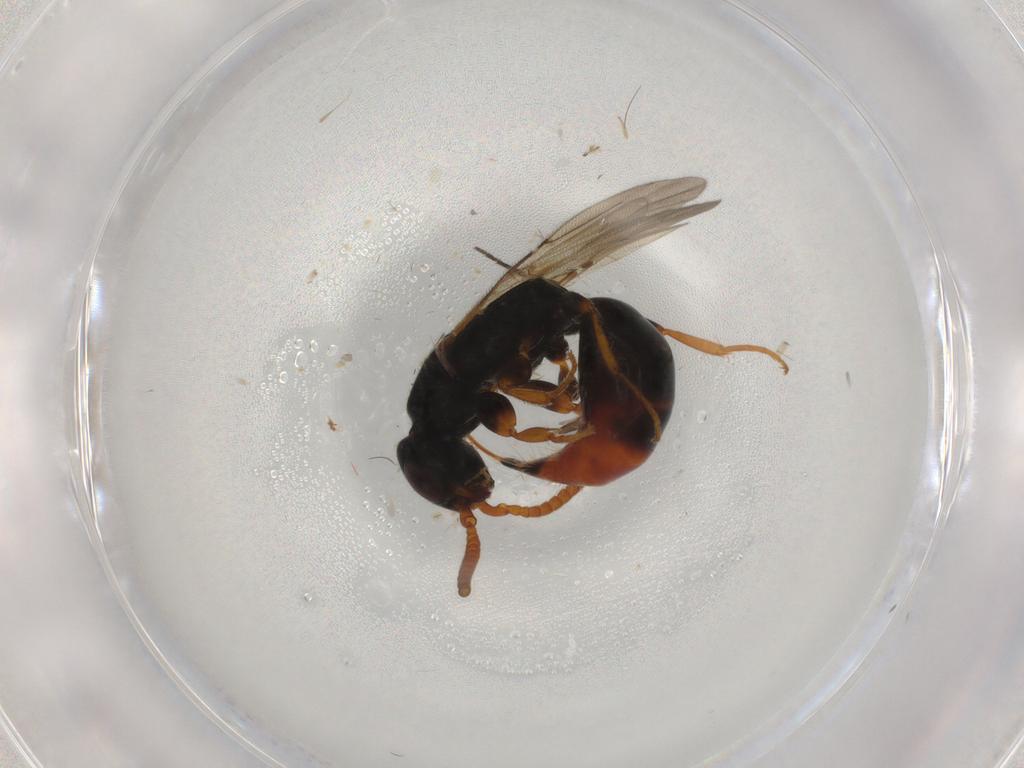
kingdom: Animalia
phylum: Arthropoda
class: Insecta
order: Hymenoptera
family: Bethylidae
